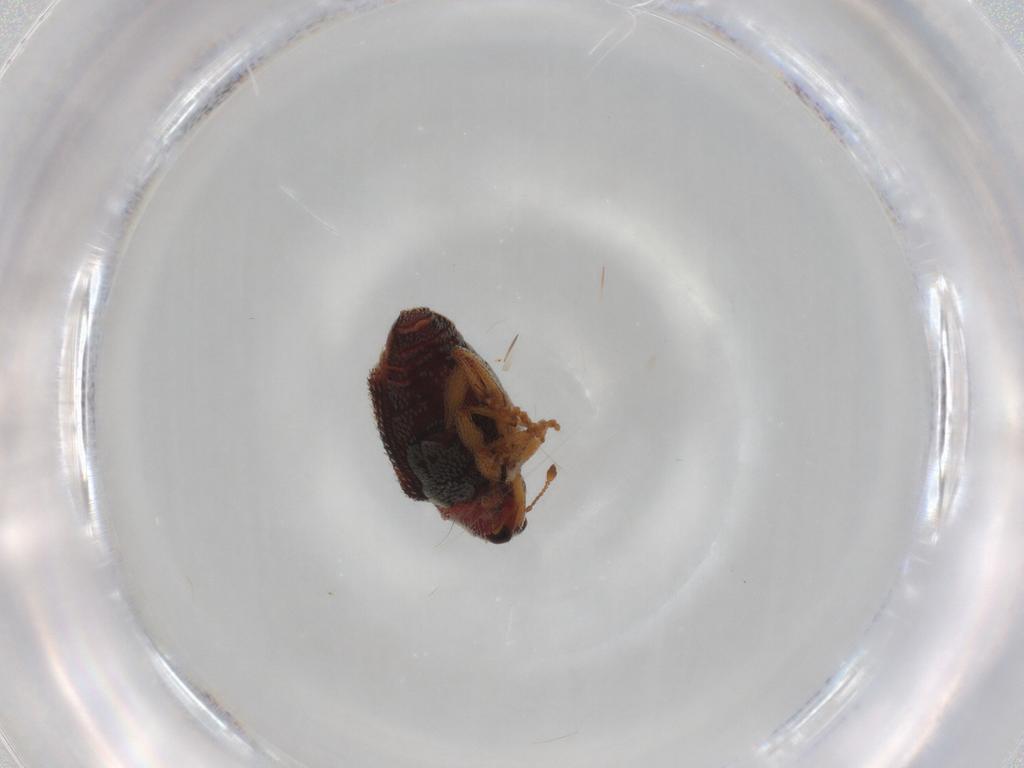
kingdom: Animalia
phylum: Arthropoda
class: Insecta
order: Coleoptera
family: Curculionidae
